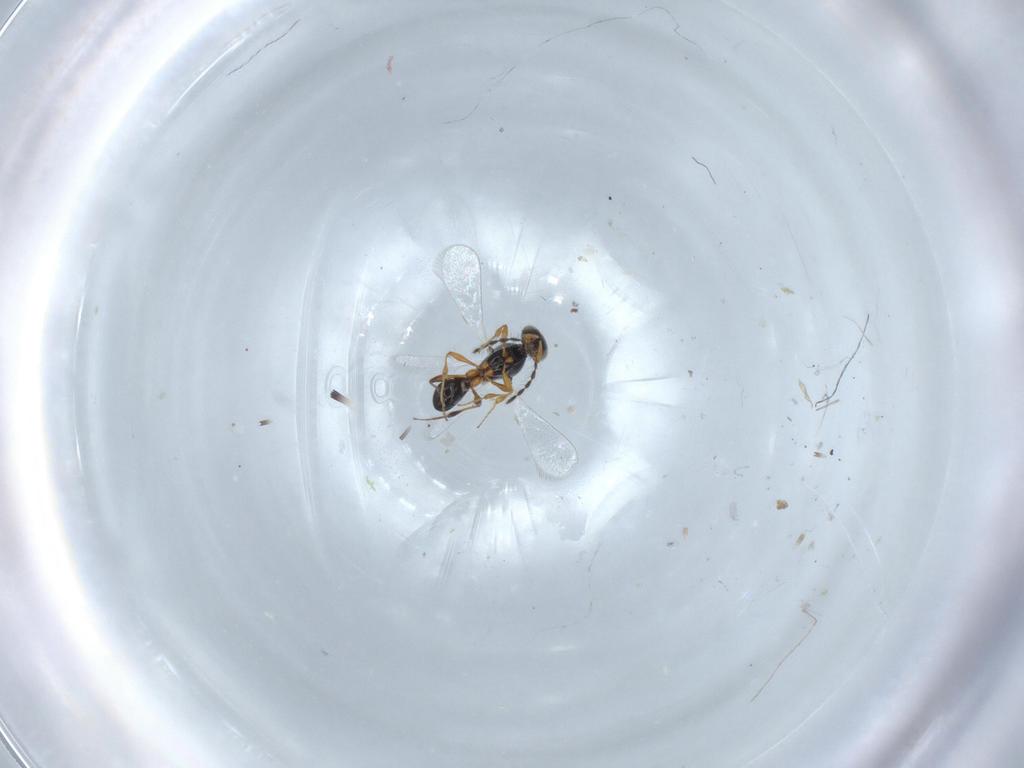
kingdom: Animalia
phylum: Arthropoda
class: Insecta
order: Hymenoptera
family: Platygastridae
